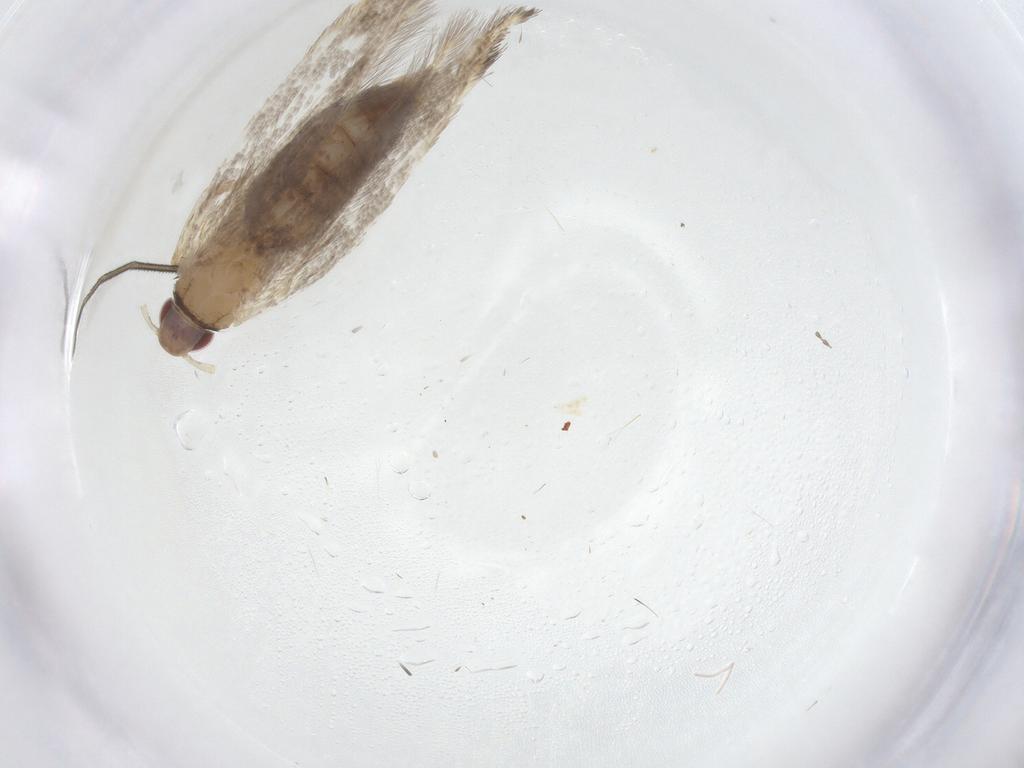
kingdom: Animalia
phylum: Arthropoda
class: Insecta
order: Lepidoptera
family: Cosmopterigidae
